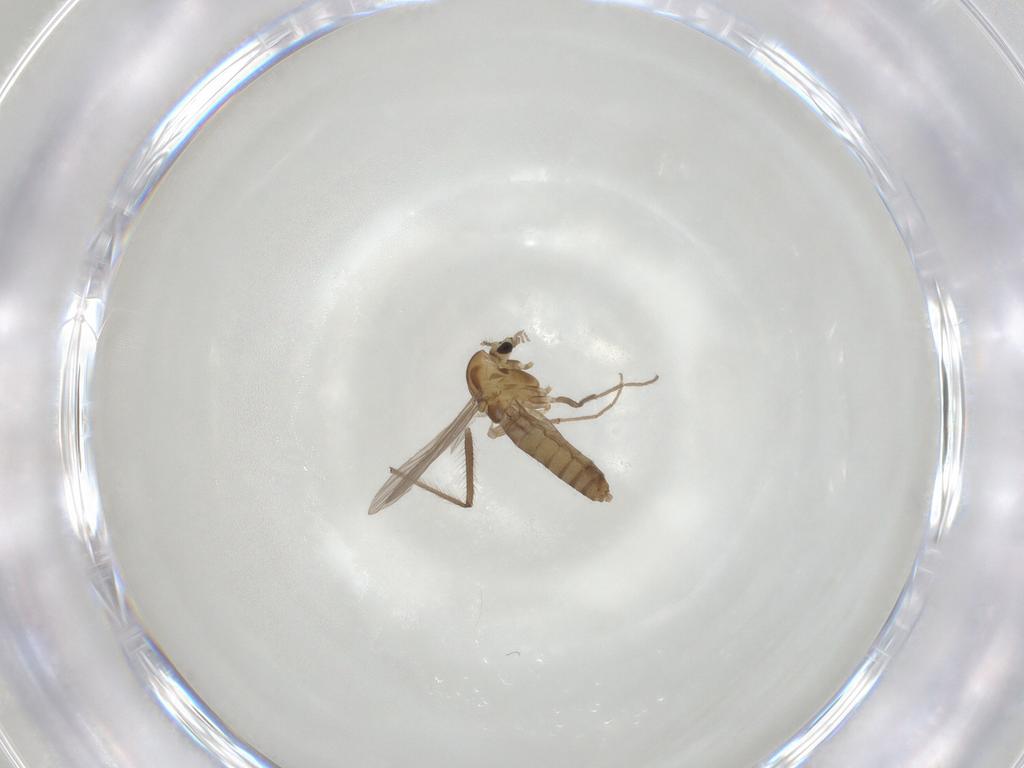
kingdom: Animalia
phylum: Arthropoda
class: Insecta
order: Diptera
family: Chironomidae
